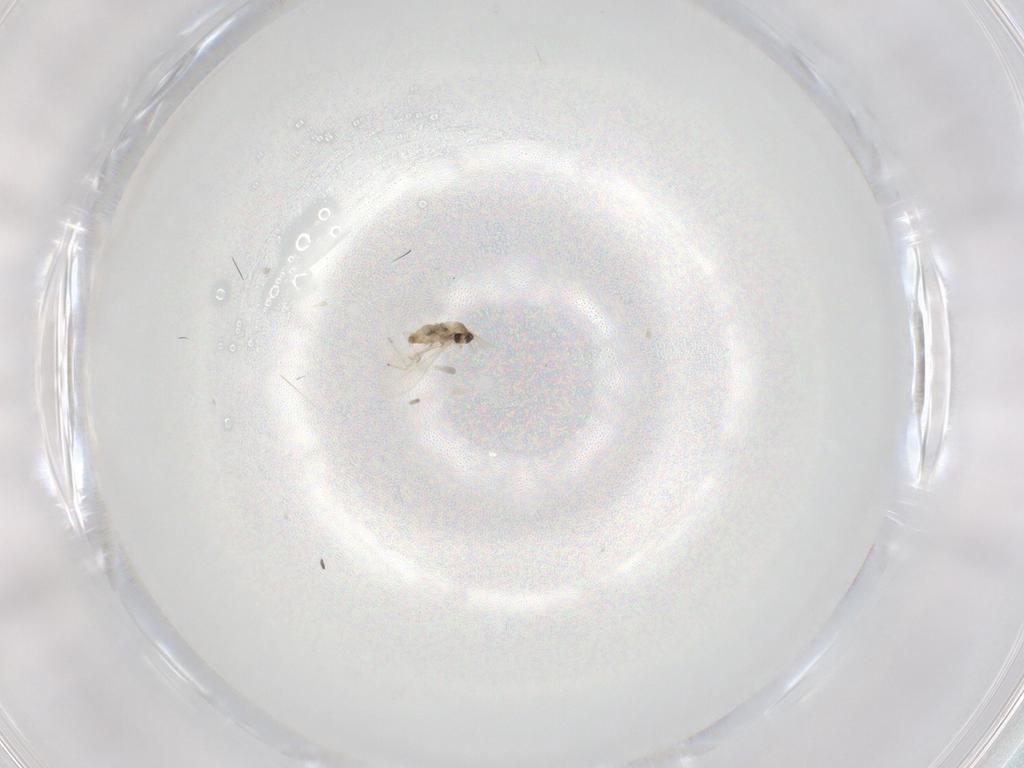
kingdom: Animalia
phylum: Arthropoda
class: Insecta
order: Diptera
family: Cecidomyiidae
